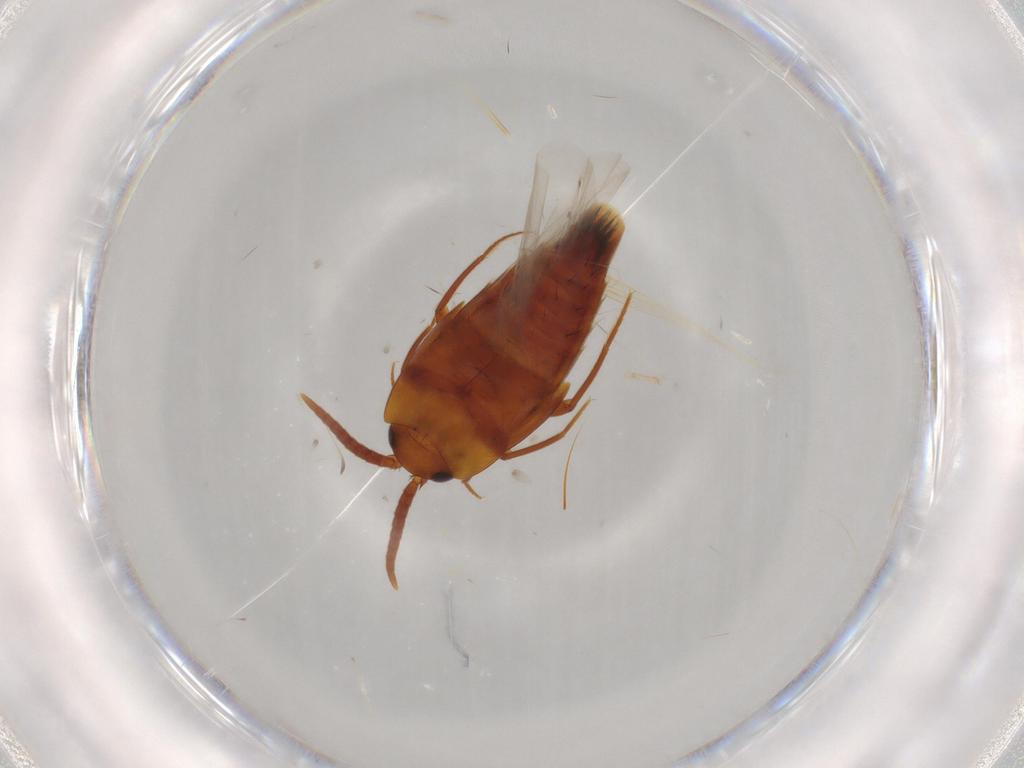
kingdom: Animalia
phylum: Arthropoda
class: Insecta
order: Coleoptera
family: Staphylinidae
